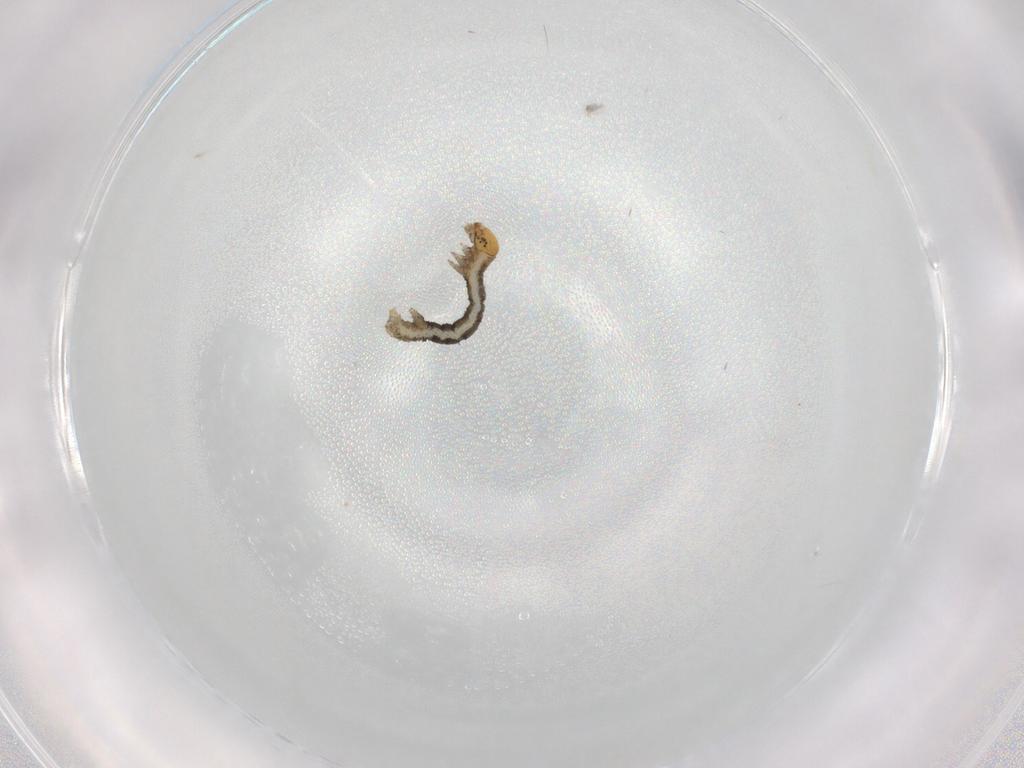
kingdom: Animalia
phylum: Arthropoda
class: Insecta
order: Lepidoptera
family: Geometridae
